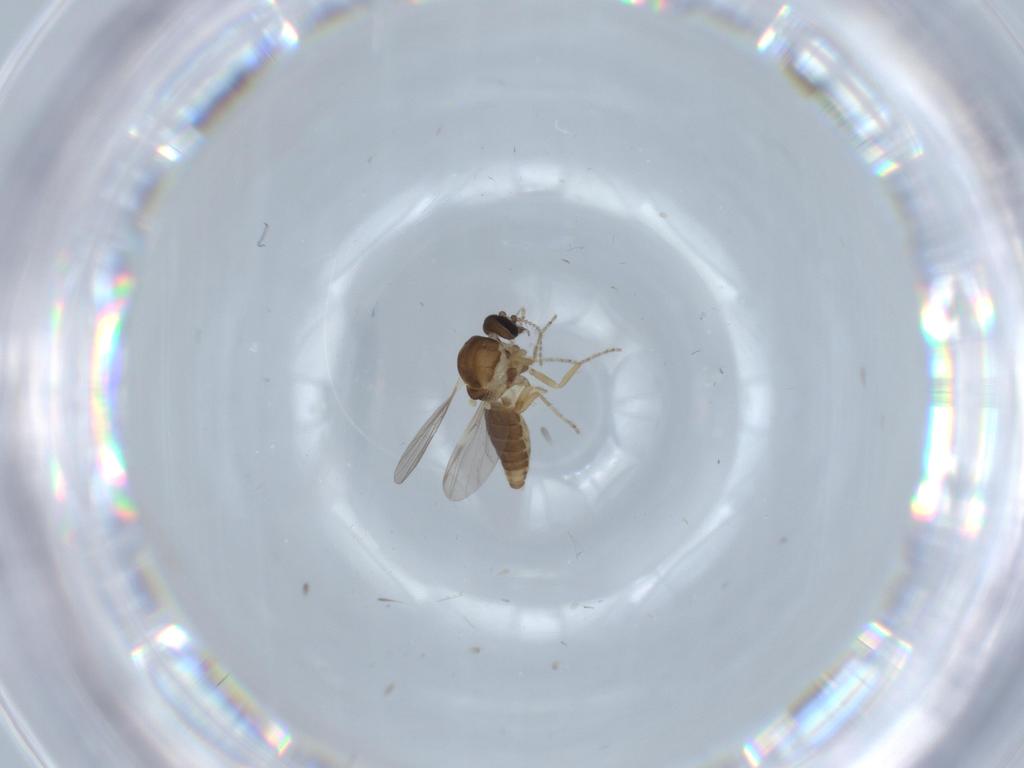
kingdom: Animalia
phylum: Arthropoda
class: Insecta
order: Diptera
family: Ceratopogonidae
